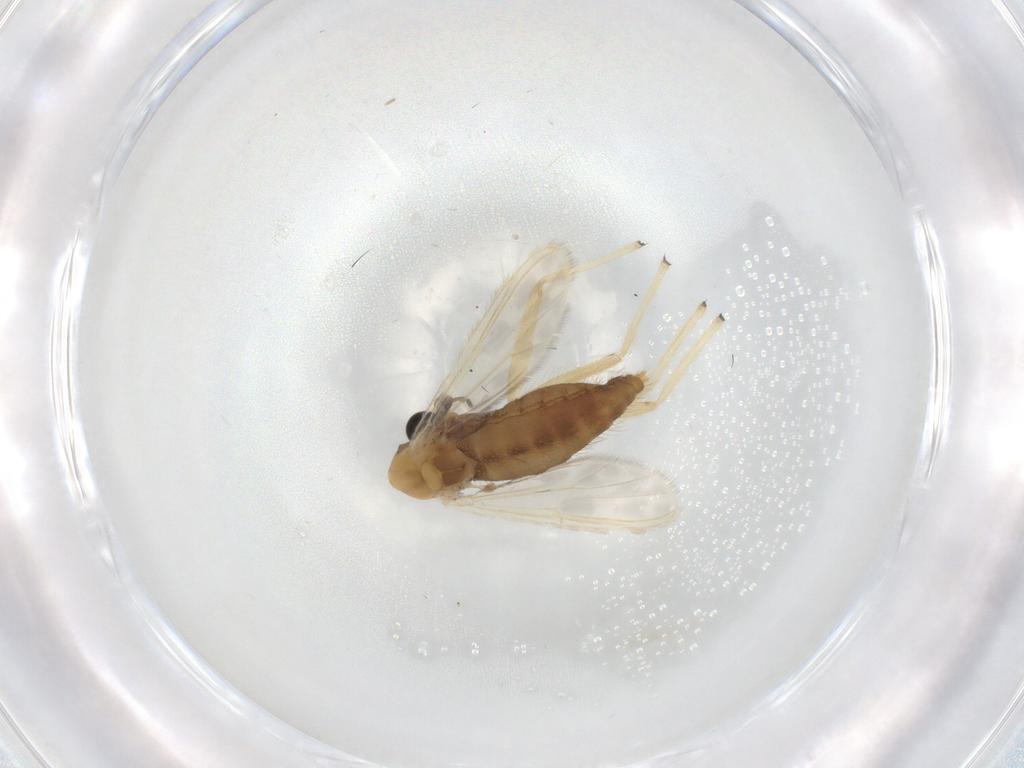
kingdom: Animalia
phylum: Arthropoda
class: Insecta
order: Diptera
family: Chironomidae
